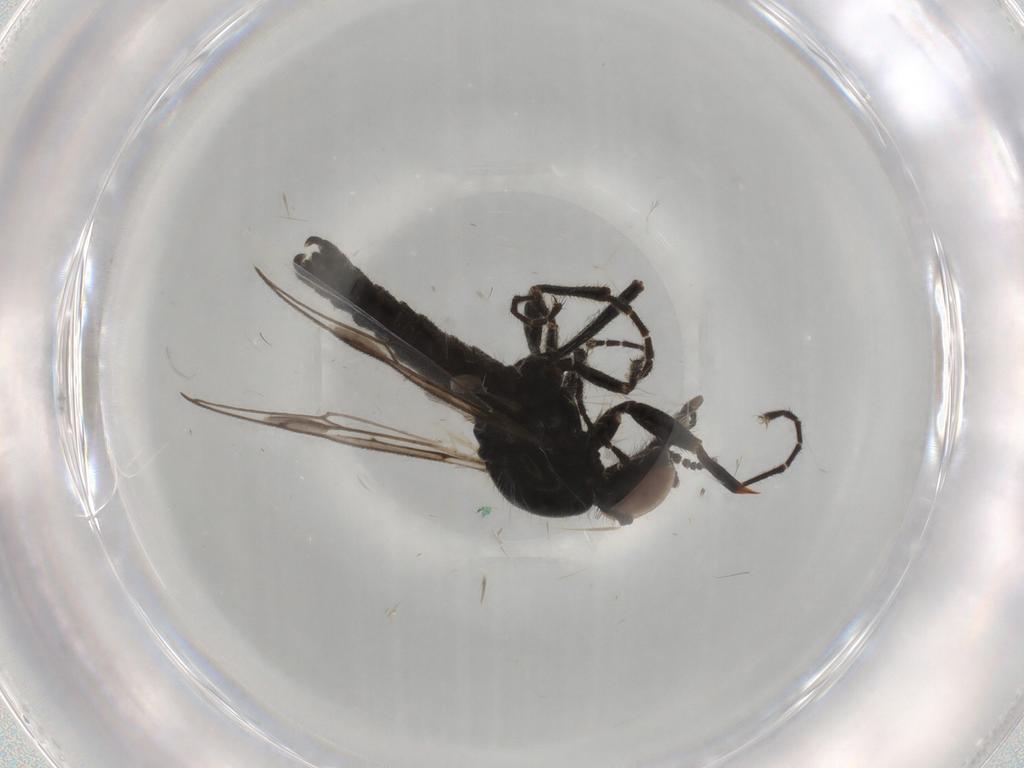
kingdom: Animalia
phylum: Arthropoda
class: Insecta
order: Diptera
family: Bibionidae
